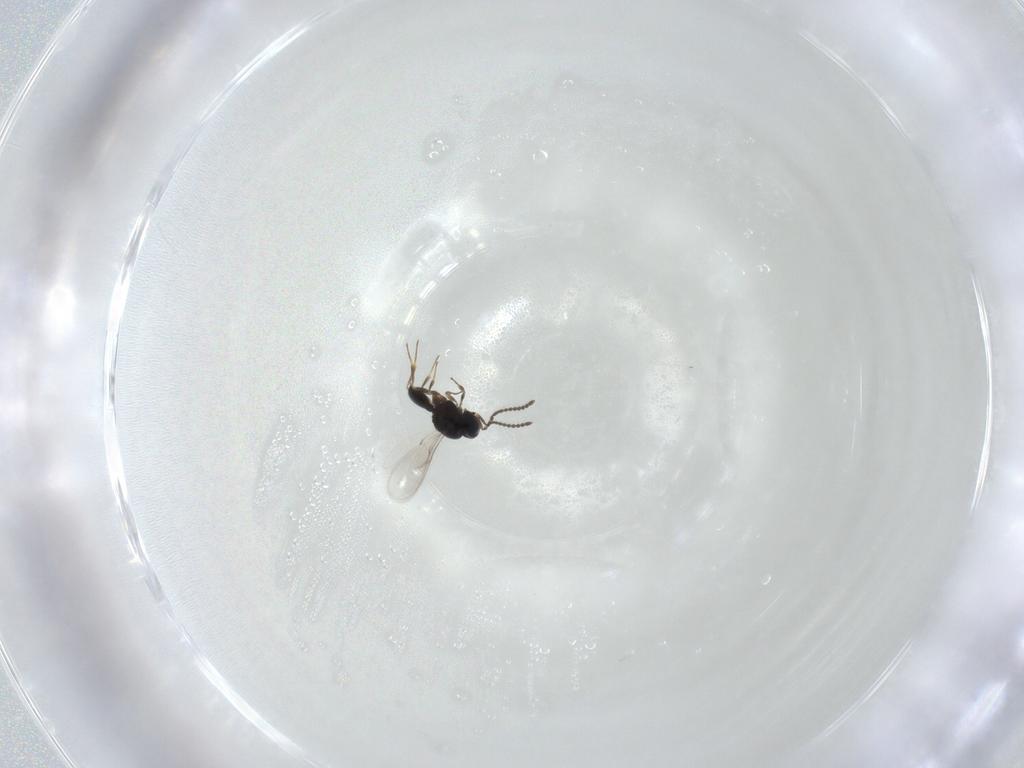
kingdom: Animalia
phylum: Arthropoda
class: Insecta
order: Hymenoptera
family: Scelionidae
